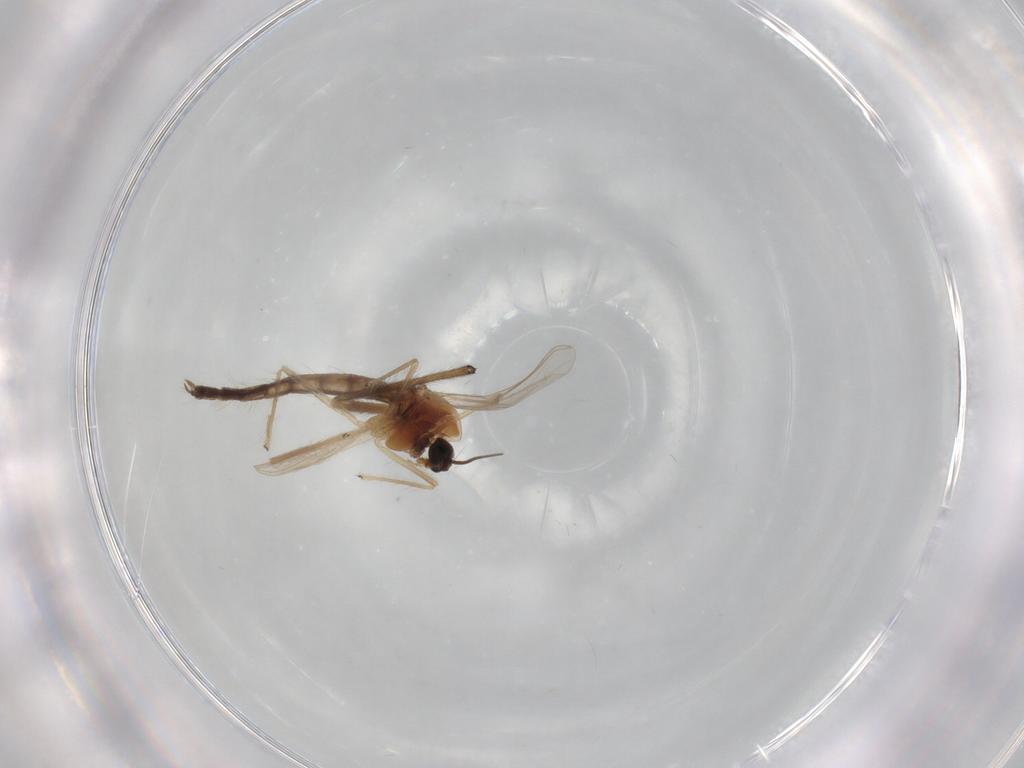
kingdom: Animalia
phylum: Arthropoda
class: Insecta
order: Diptera
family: Chironomidae
